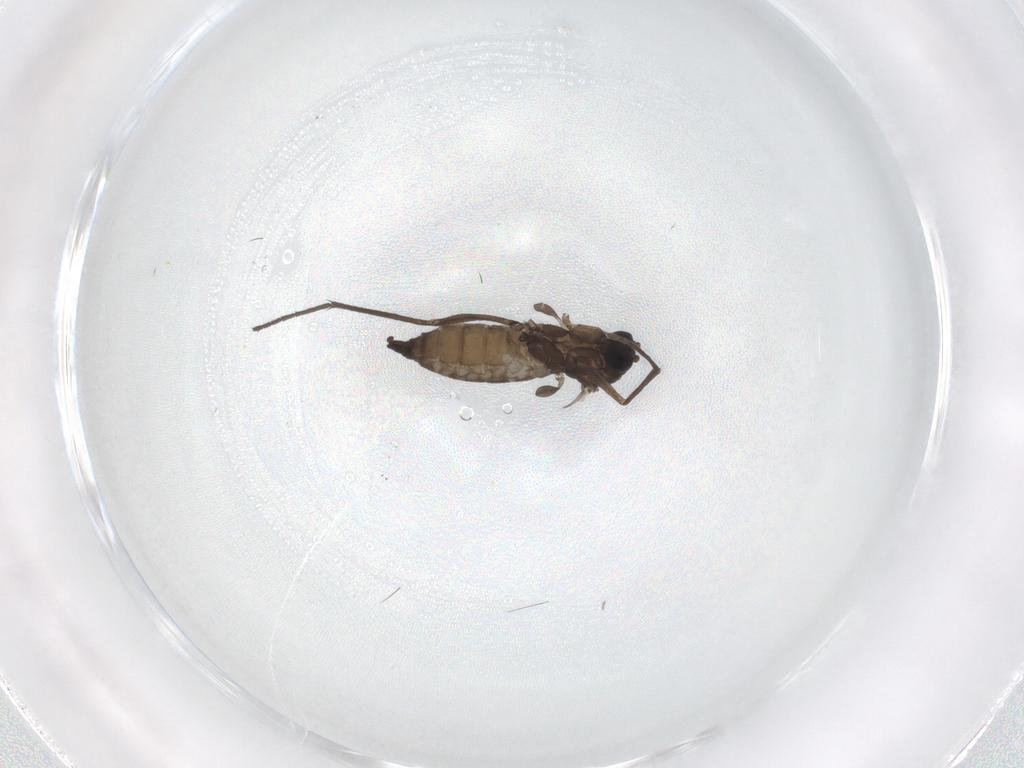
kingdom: Animalia
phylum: Arthropoda
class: Insecta
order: Diptera
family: Sciaridae
